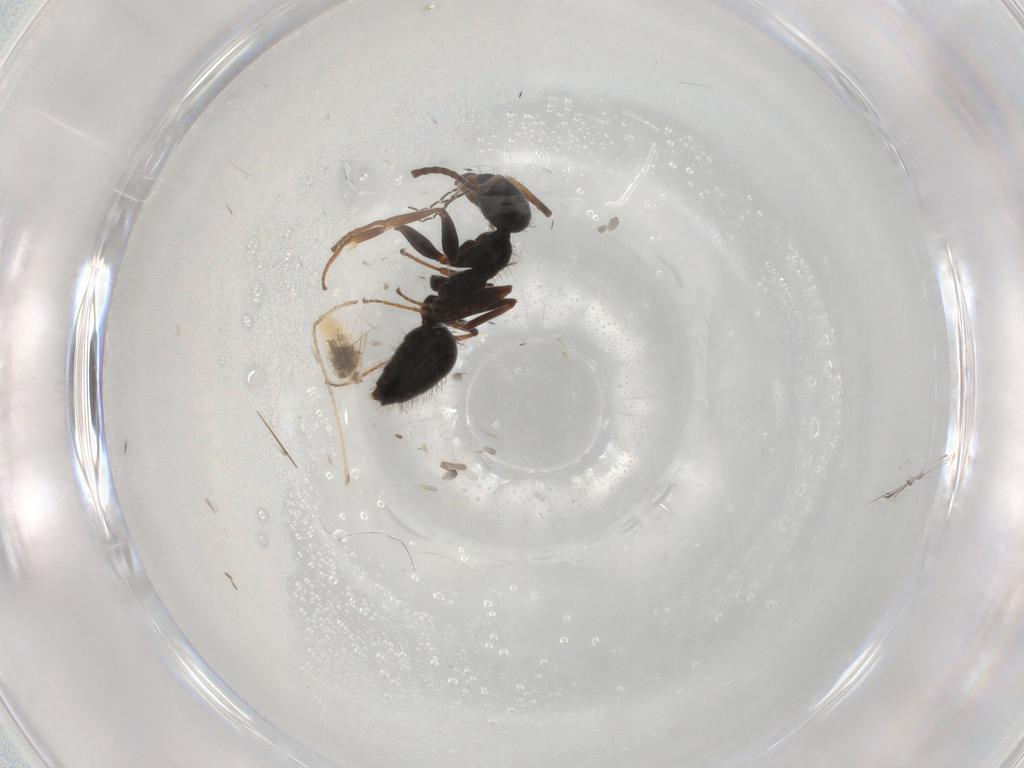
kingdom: Animalia
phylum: Arthropoda
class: Insecta
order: Hymenoptera
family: Formicidae
